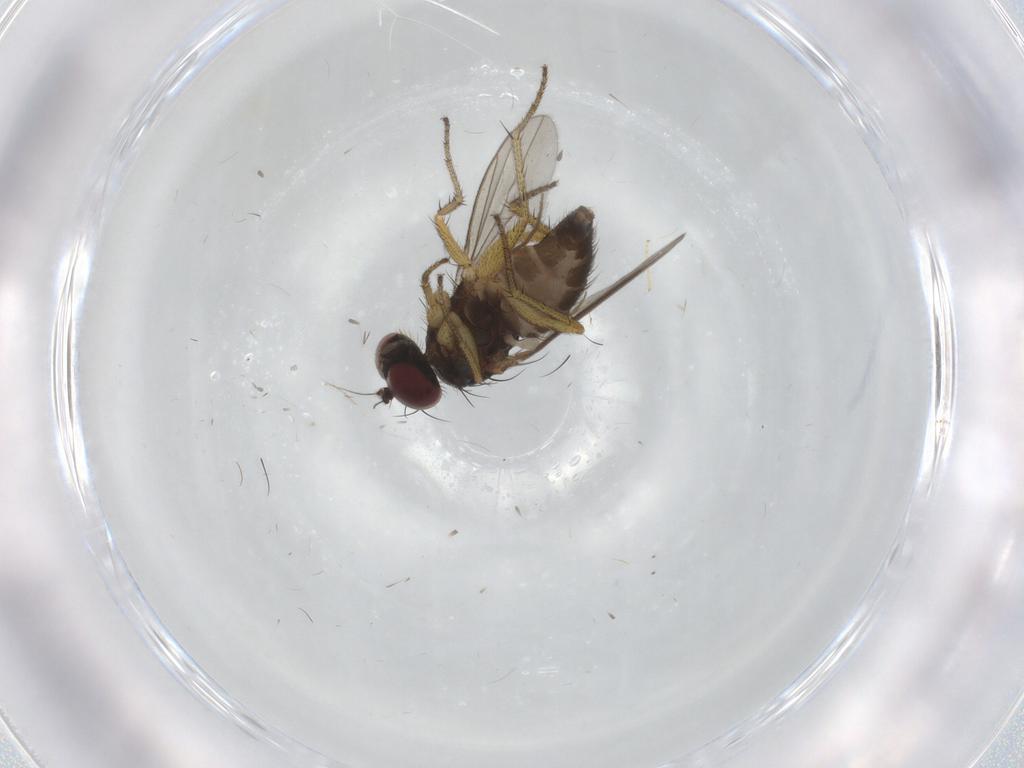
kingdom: Animalia
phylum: Arthropoda
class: Insecta
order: Diptera
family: Dolichopodidae
